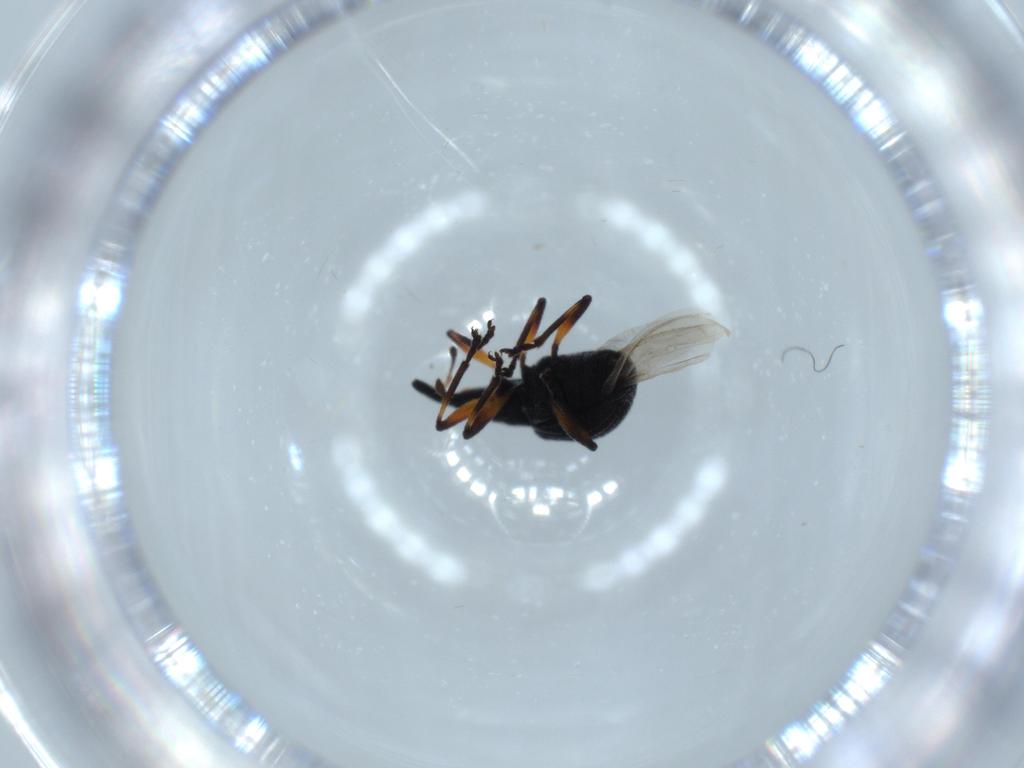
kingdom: Animalia
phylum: Arthropoda
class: Insecta
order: Coleoptera
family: Brentidae
